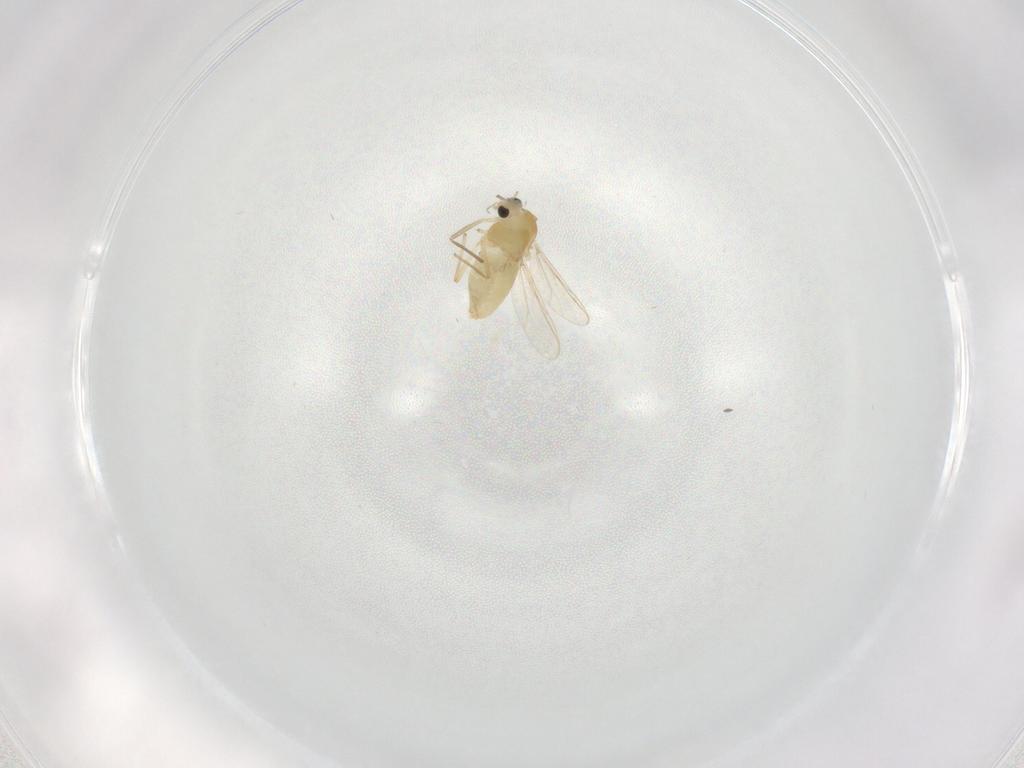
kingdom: Animalia
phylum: Arthropoda
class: Insecta
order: Diptera
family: Chironomidae
